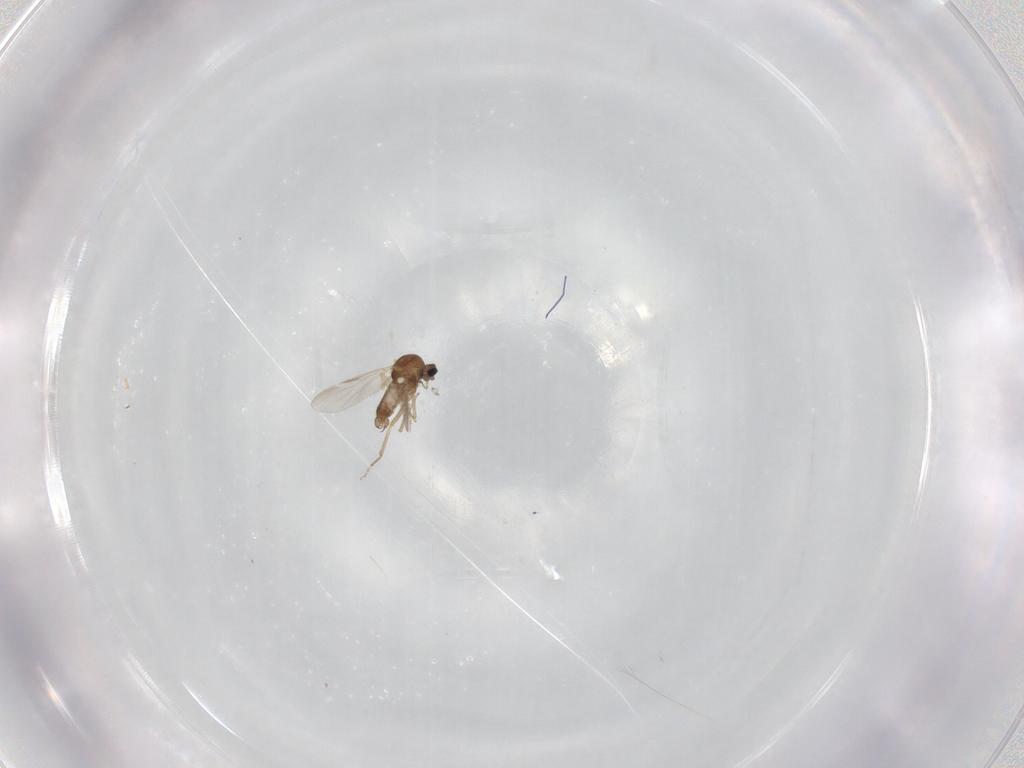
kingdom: Animalia
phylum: Arthropoda
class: Insecta
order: Diptera
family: Ceratopogonidae
